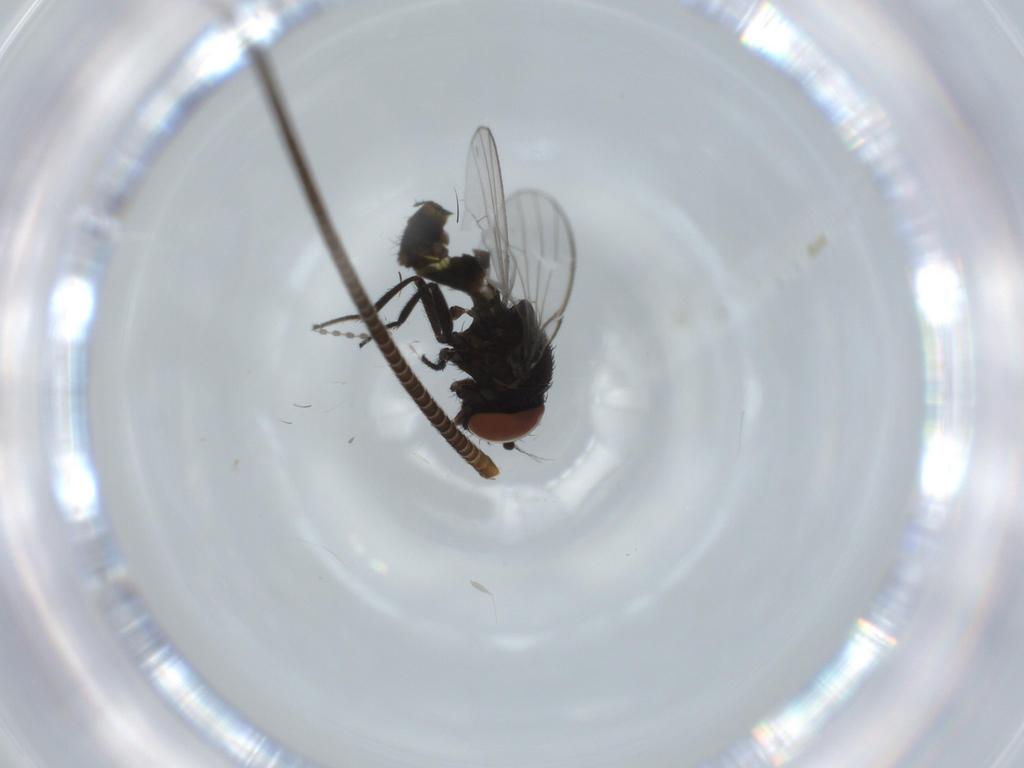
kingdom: Animalia
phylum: Arthropoda
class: Insecta
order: Diptera
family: Milichiidae
